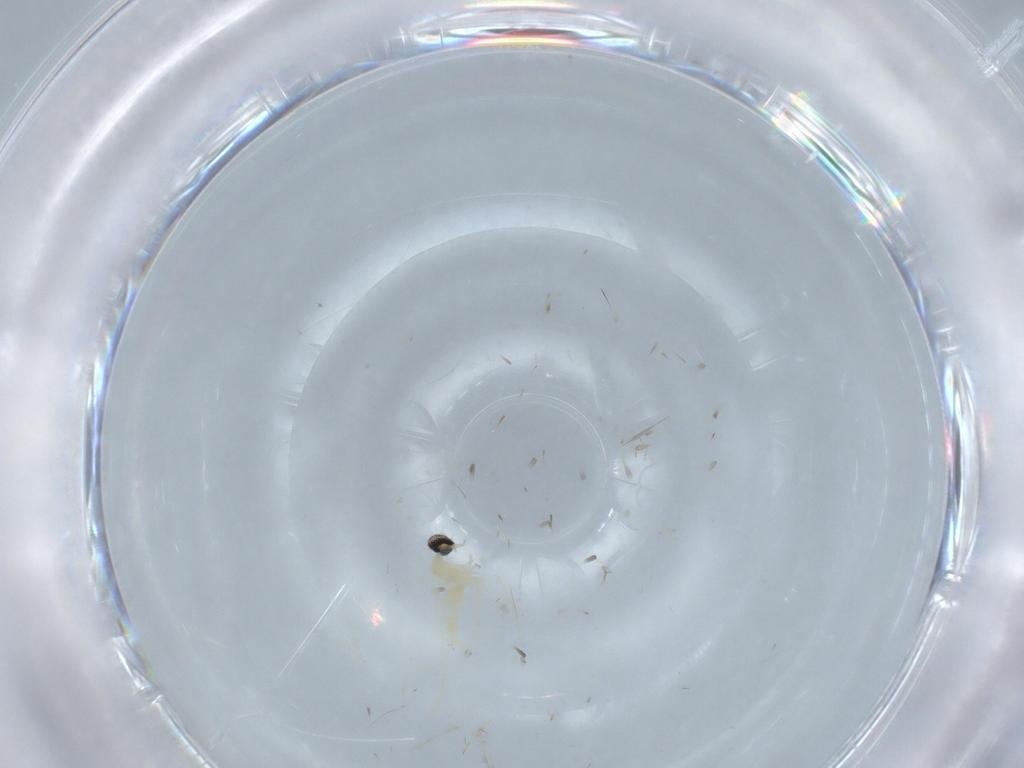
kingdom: Animalia
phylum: Arthropoda
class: Insecta
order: Diptera
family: Cecidomyiidae
